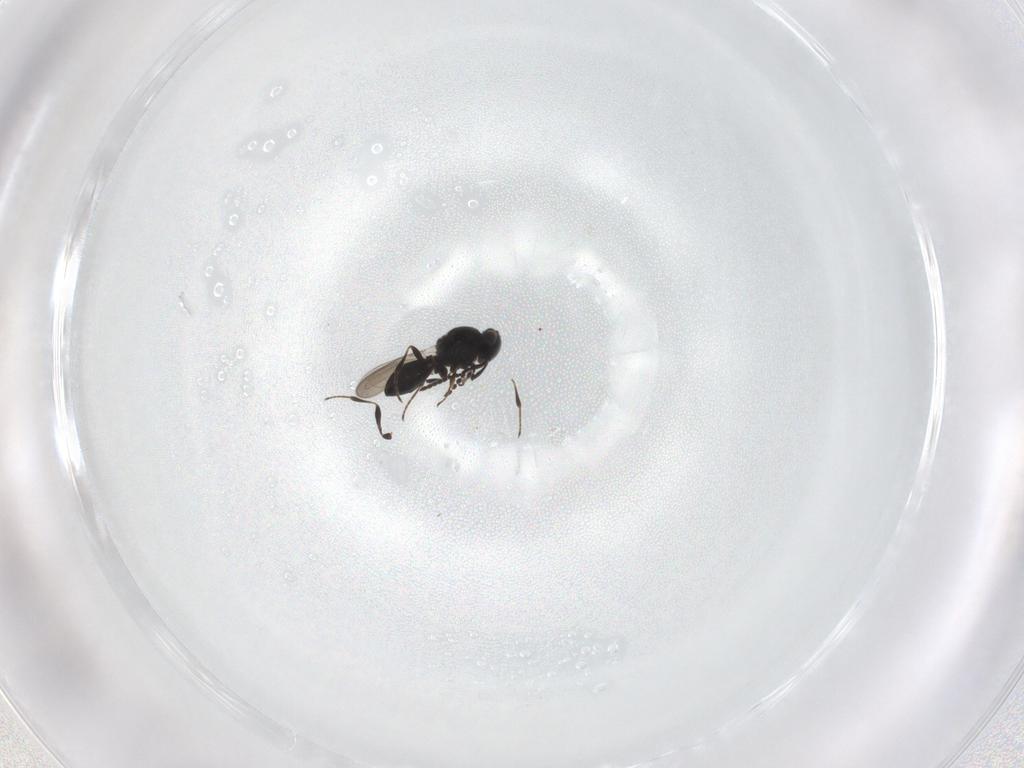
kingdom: Animalia
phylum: Arthropoda
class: Insecta
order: Hymenoptera
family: Platygastridae
